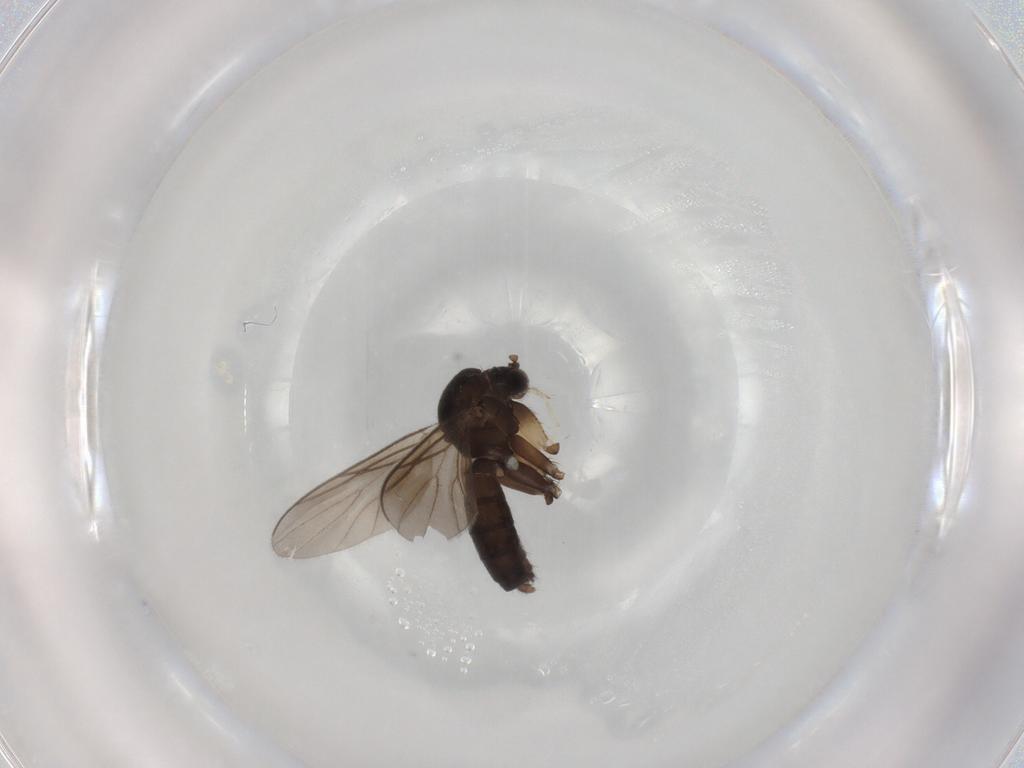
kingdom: Animalia
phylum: Arthropoda
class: Insecta
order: Diptera
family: Mycetophilidae
